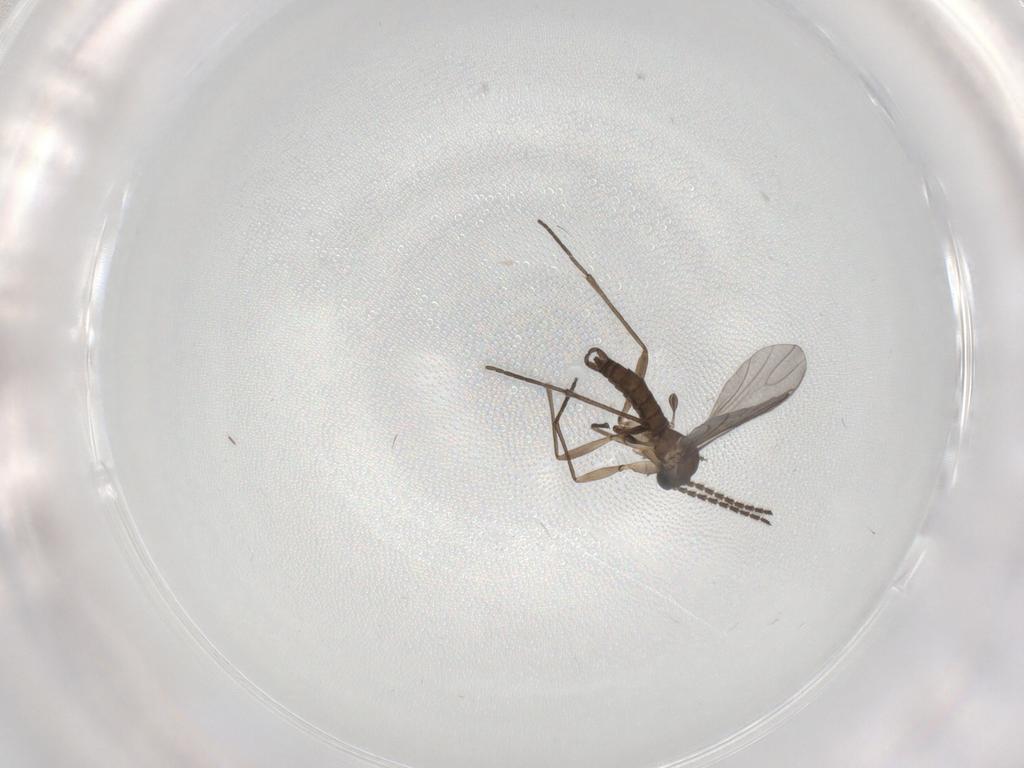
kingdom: Animalia
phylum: Arthropoda
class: Insecta
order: Diptera
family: Sciaridae
